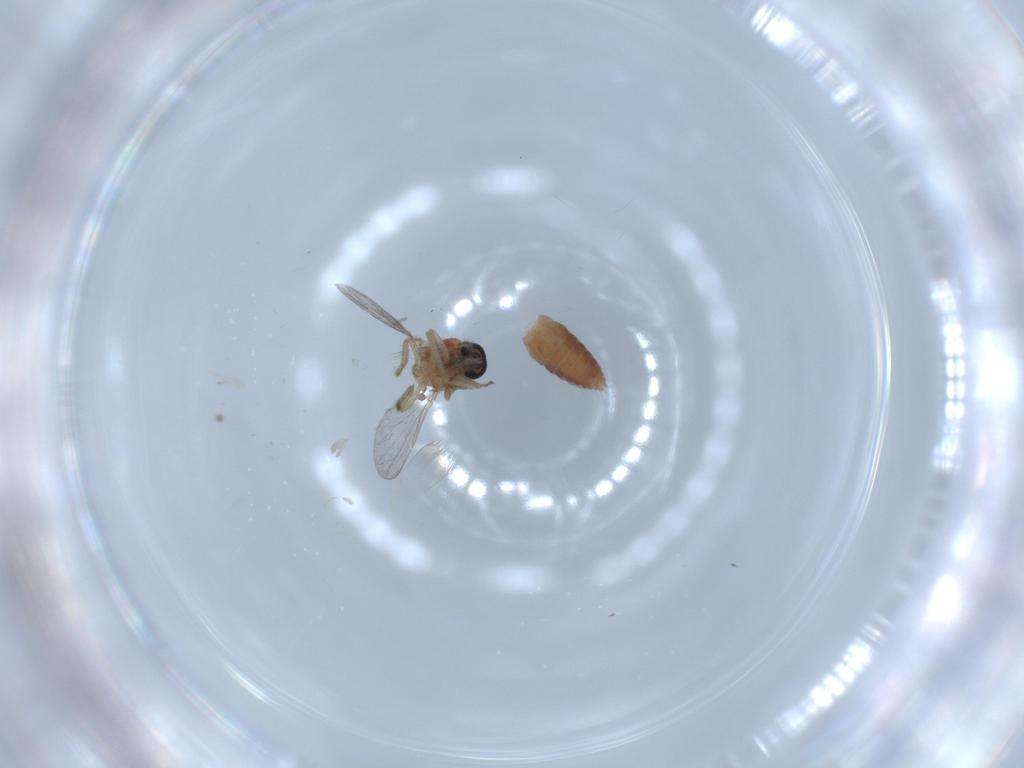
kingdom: Animalia
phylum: Arthropoda
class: Insecta
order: Diptera
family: Ceratopogonidae
